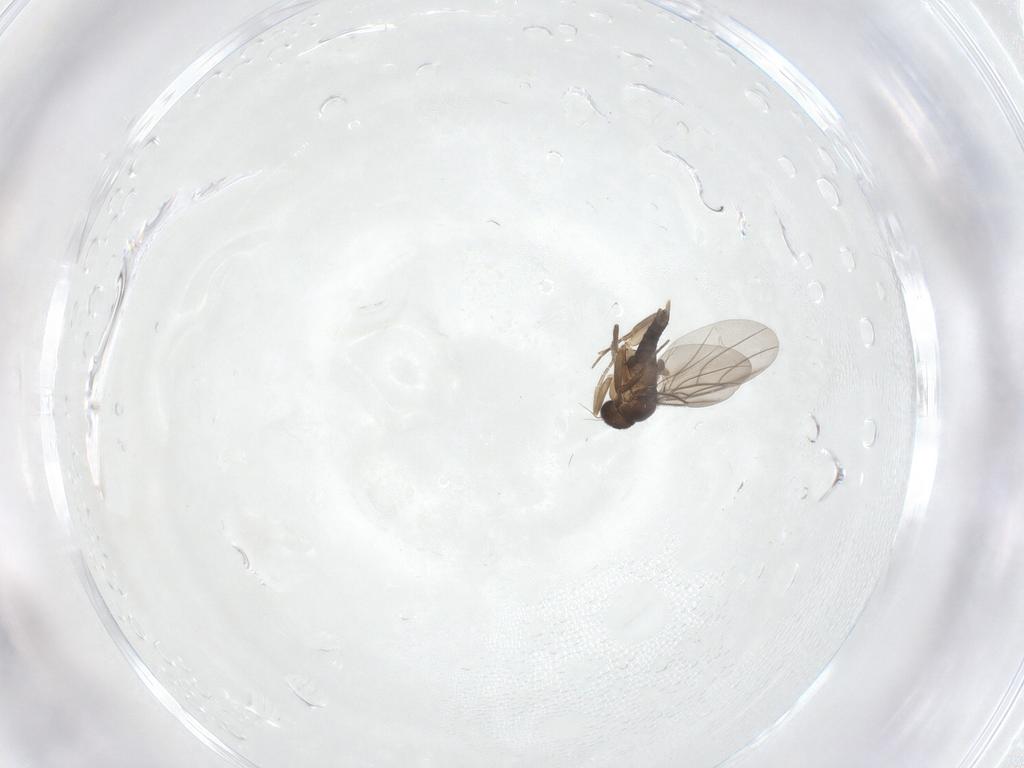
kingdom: Animalia
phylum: Arthropoda
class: Insecta
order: Diptera
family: Phoridae
